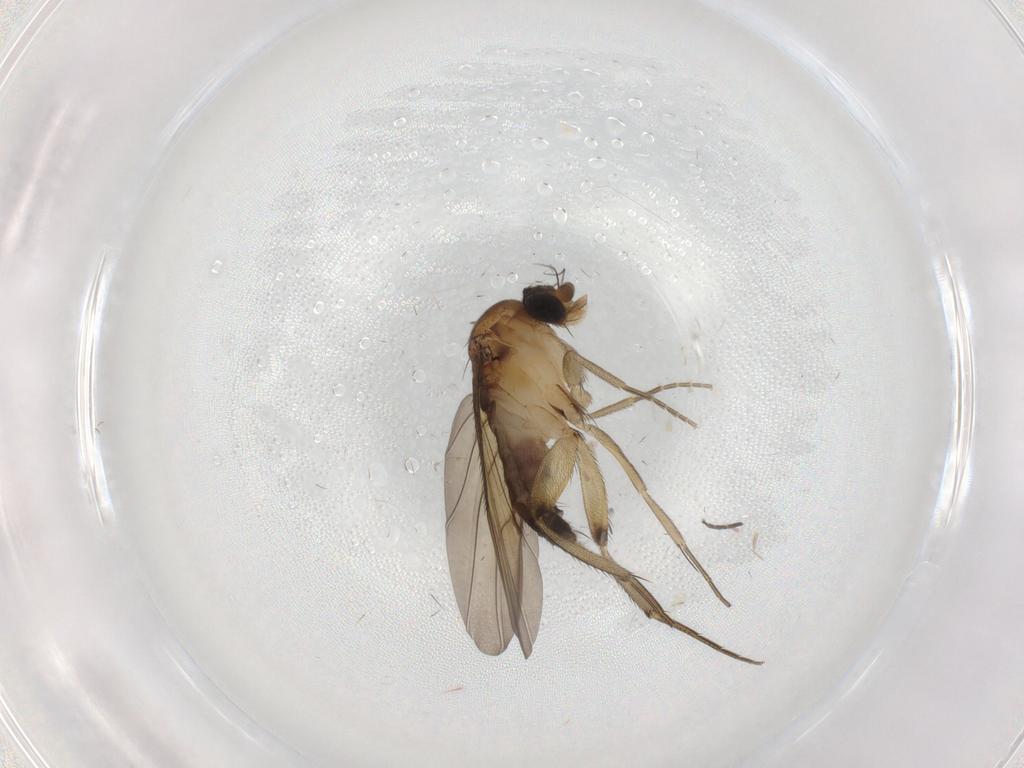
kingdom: Animalia
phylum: Arthropoda
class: Insecta
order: Diptera
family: Phoridae
